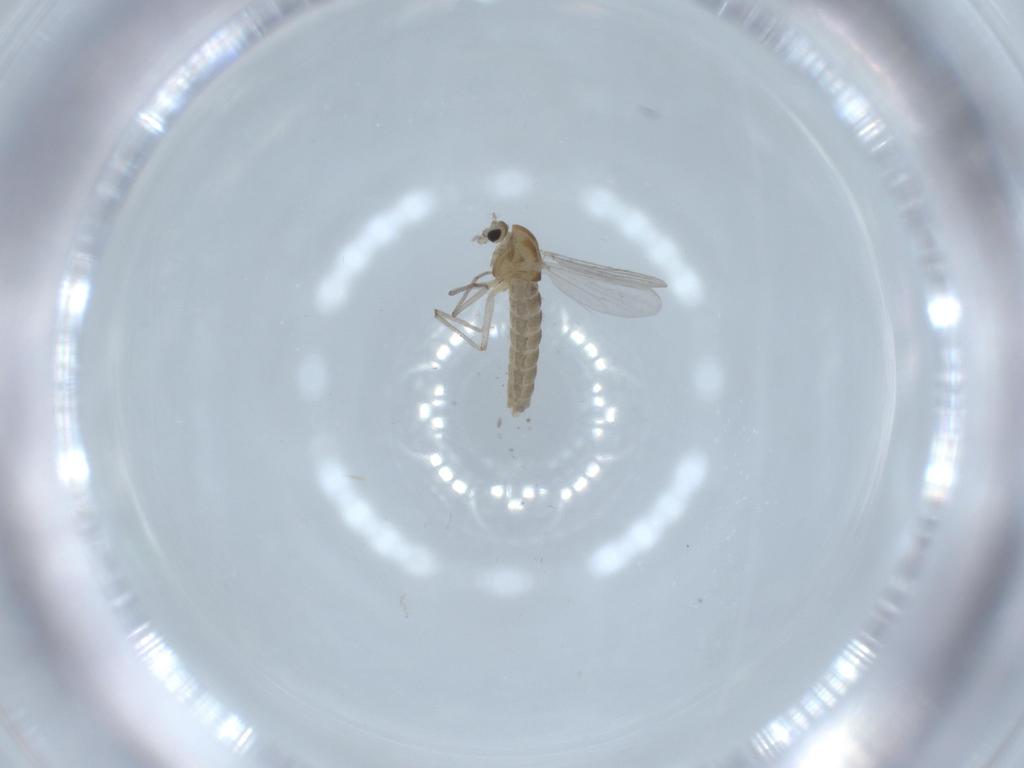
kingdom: Animalia
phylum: Arthropoda
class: Insecta
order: Diptera
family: Chironomidae
